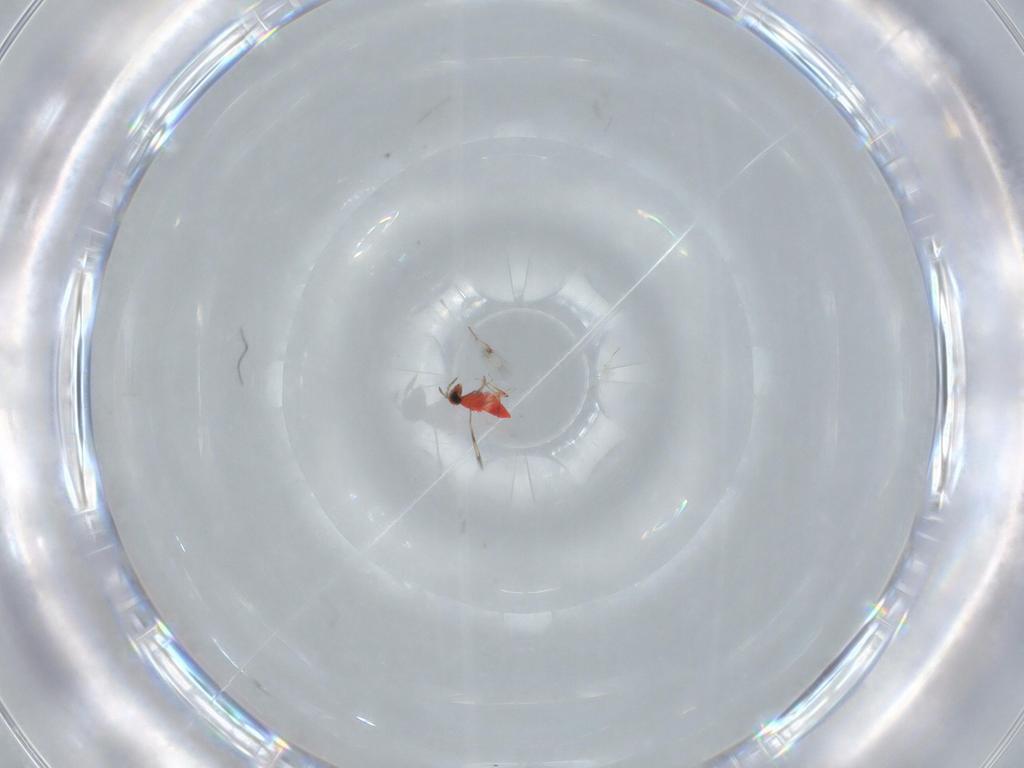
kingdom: Animalia
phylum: Arthropoda
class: Insecta
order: Hymenoptera
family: Trichogrammatidae
